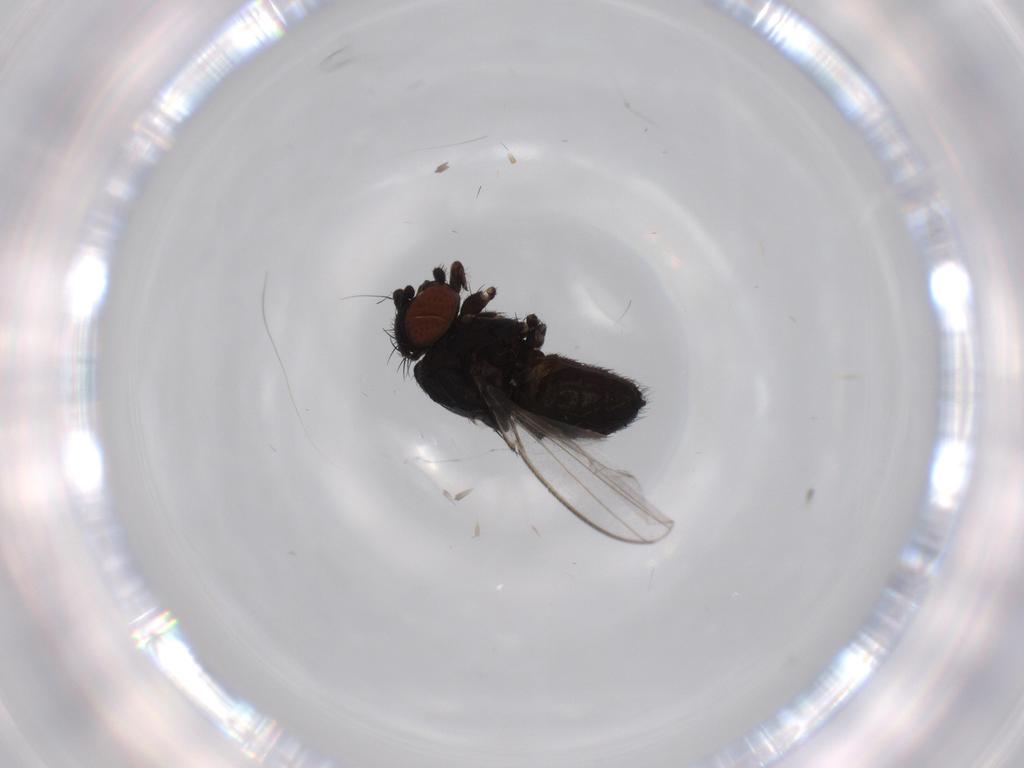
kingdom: Animalia
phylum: Arthropoda
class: Insecta
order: Diptera
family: Milichiidae
